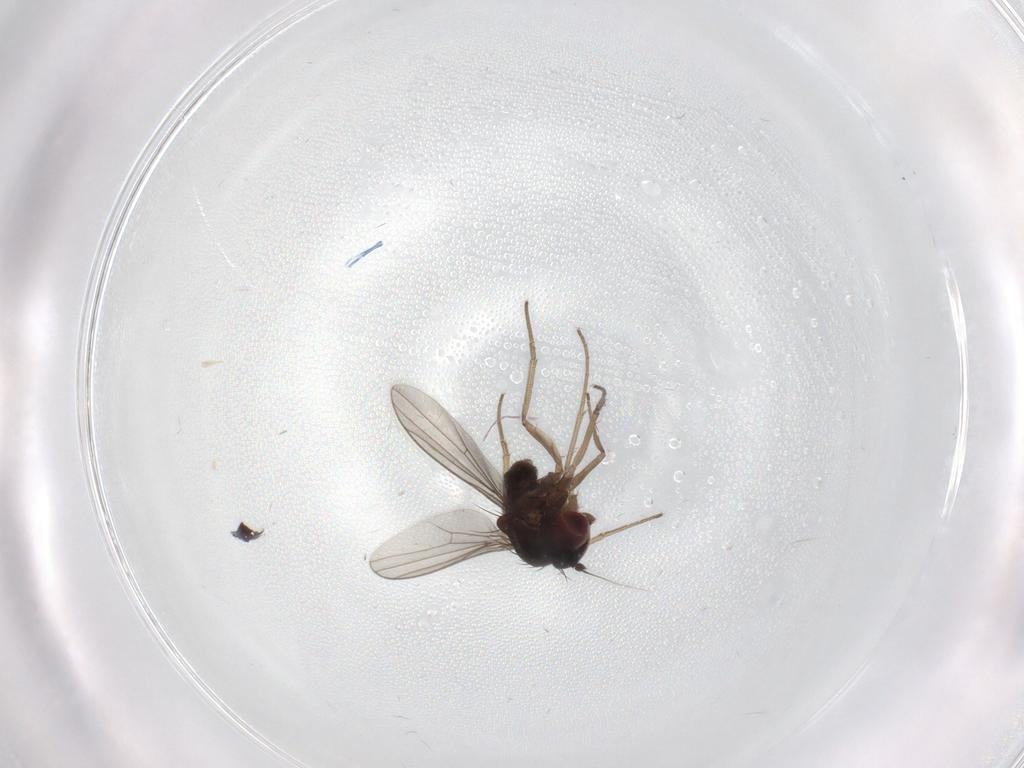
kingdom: Animalia
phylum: Arthropoda
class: Insecta
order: Diptera
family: Dolichopodidae
